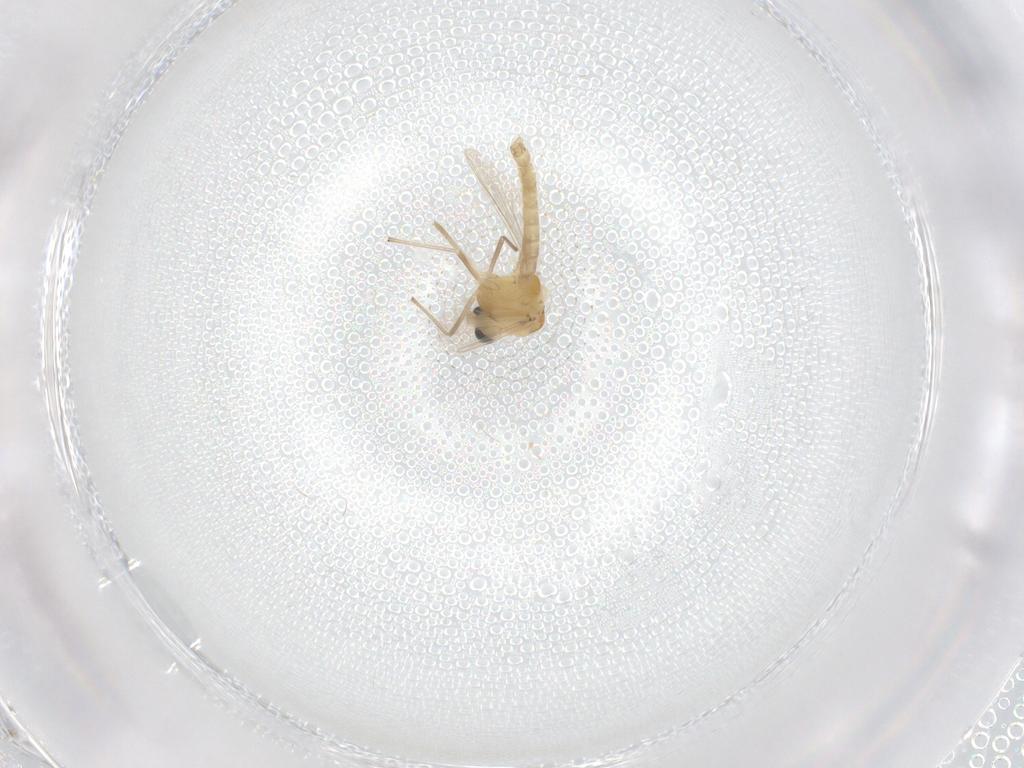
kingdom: Animalia
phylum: Arthropoda
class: Insecta
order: Diptera
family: Chironomidae
